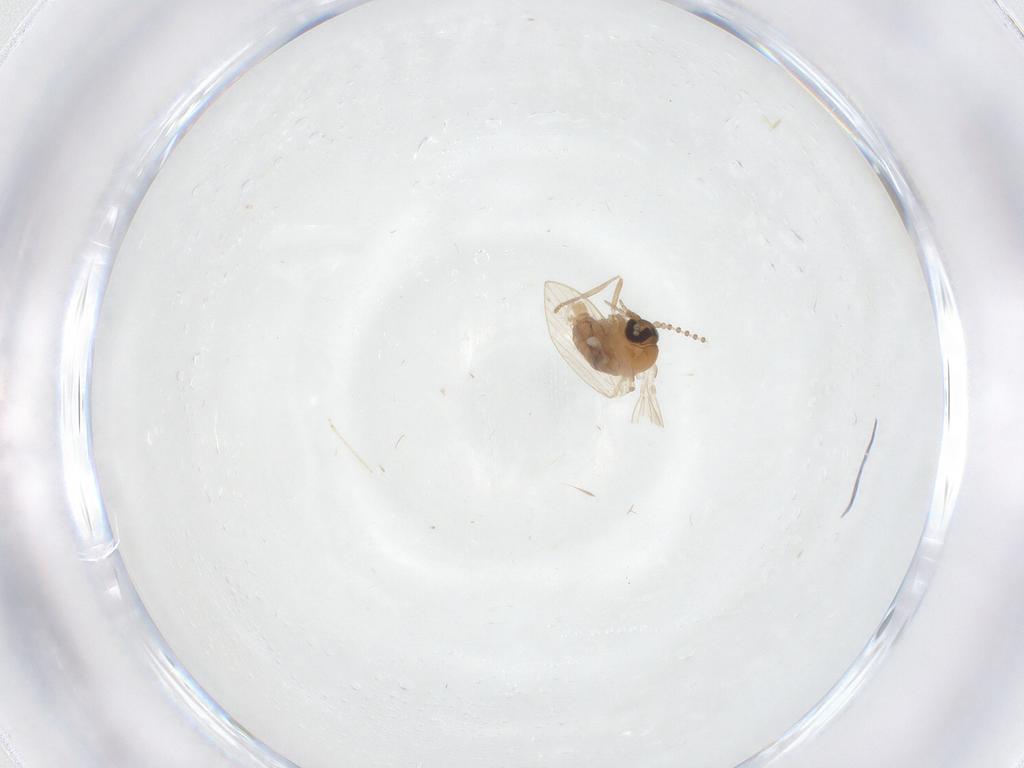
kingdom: Animalia
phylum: Arthropoda
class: Insecta
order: Diptera
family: Cecidomyiidae
